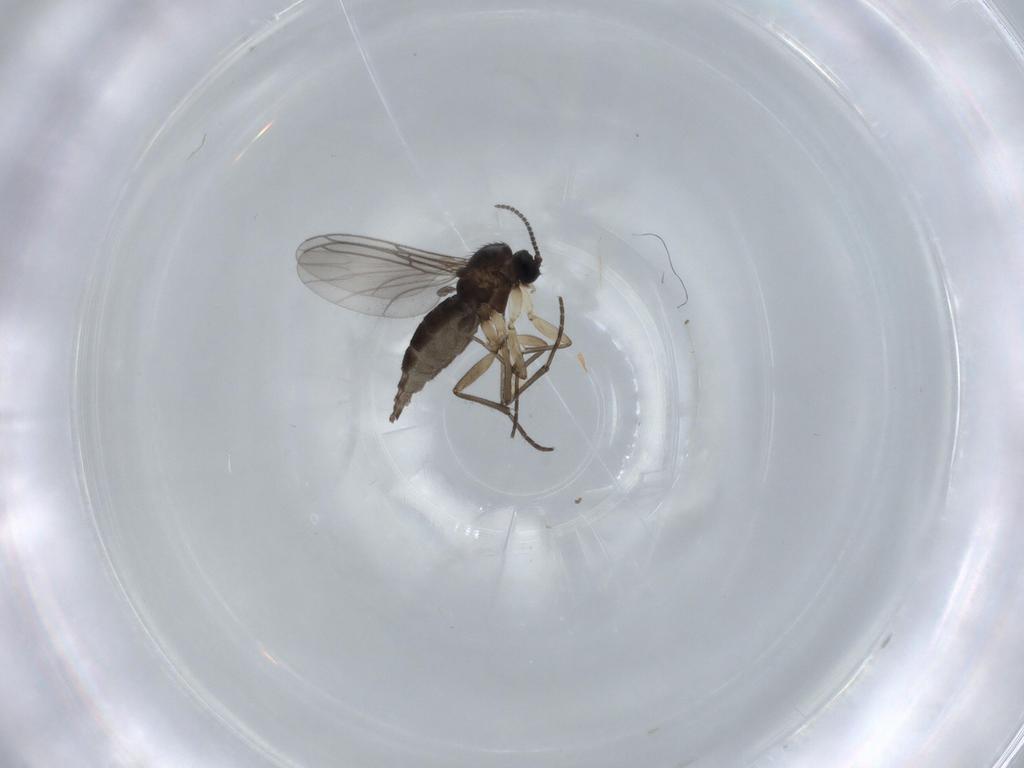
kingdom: Animalia
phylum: Arthropoda
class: Insecta
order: Diptera
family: Sciaridae
